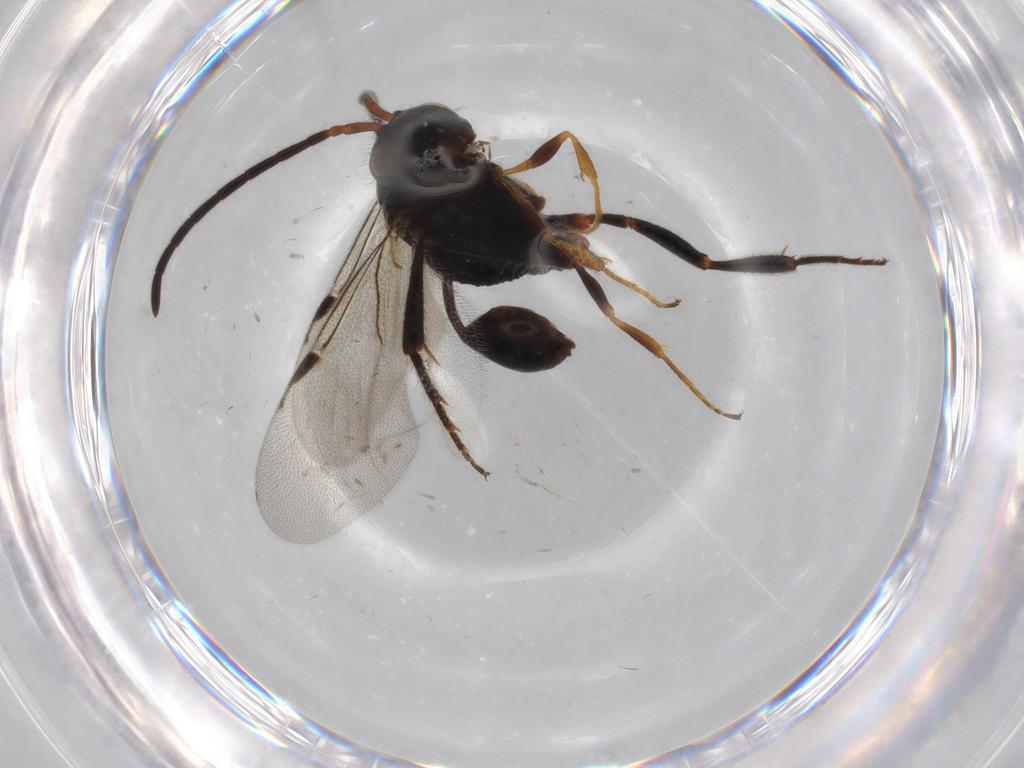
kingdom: Animalia
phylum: Arthropoda
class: Insecta
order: Hymenoptera
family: Evaniidae
